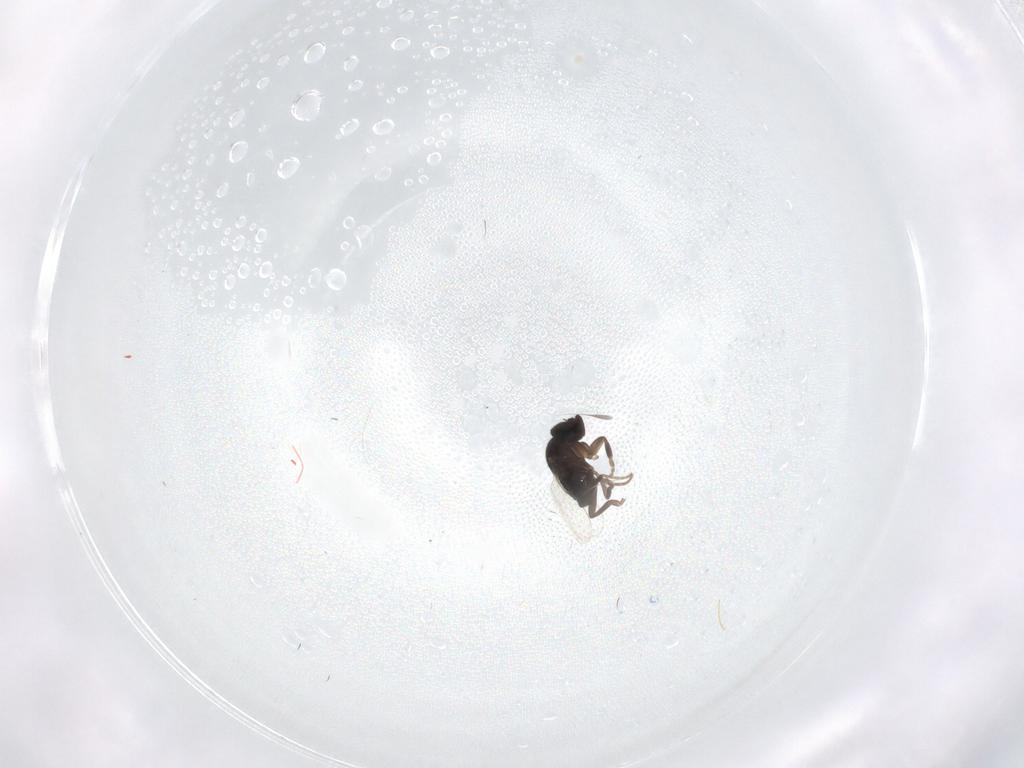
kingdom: Animalia
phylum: Arthropoda
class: Insecta
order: Diptera
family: Phoridae
